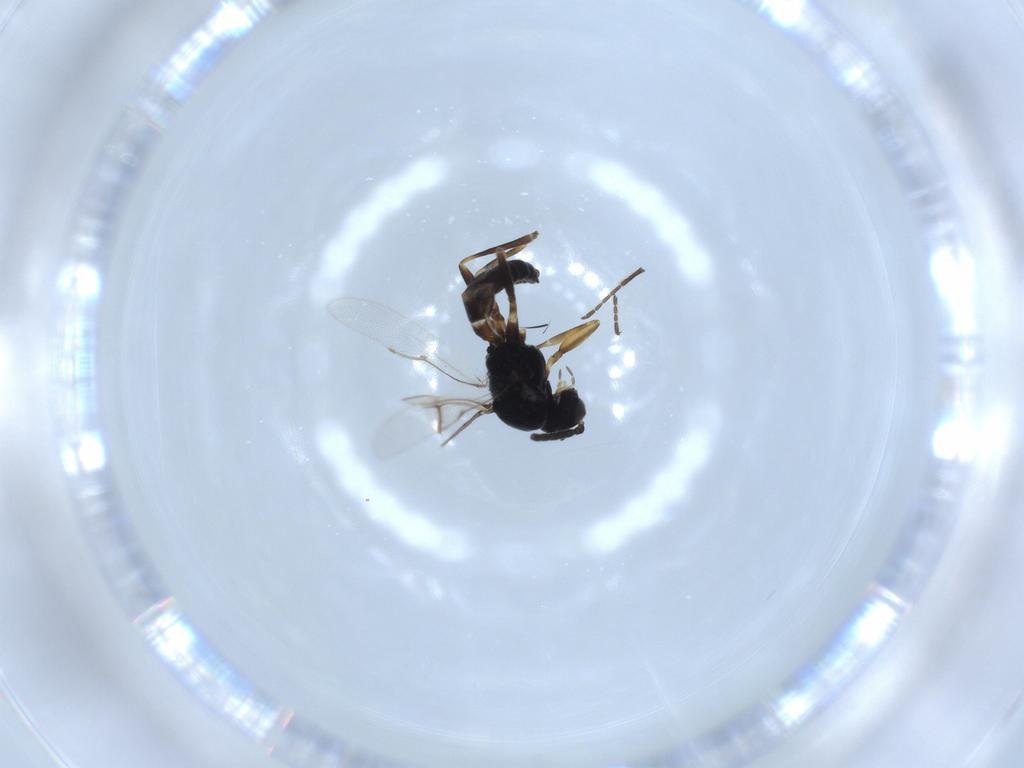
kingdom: Animalia
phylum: Arthropoda
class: Insecta
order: Hymenoptera
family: Braconidae
